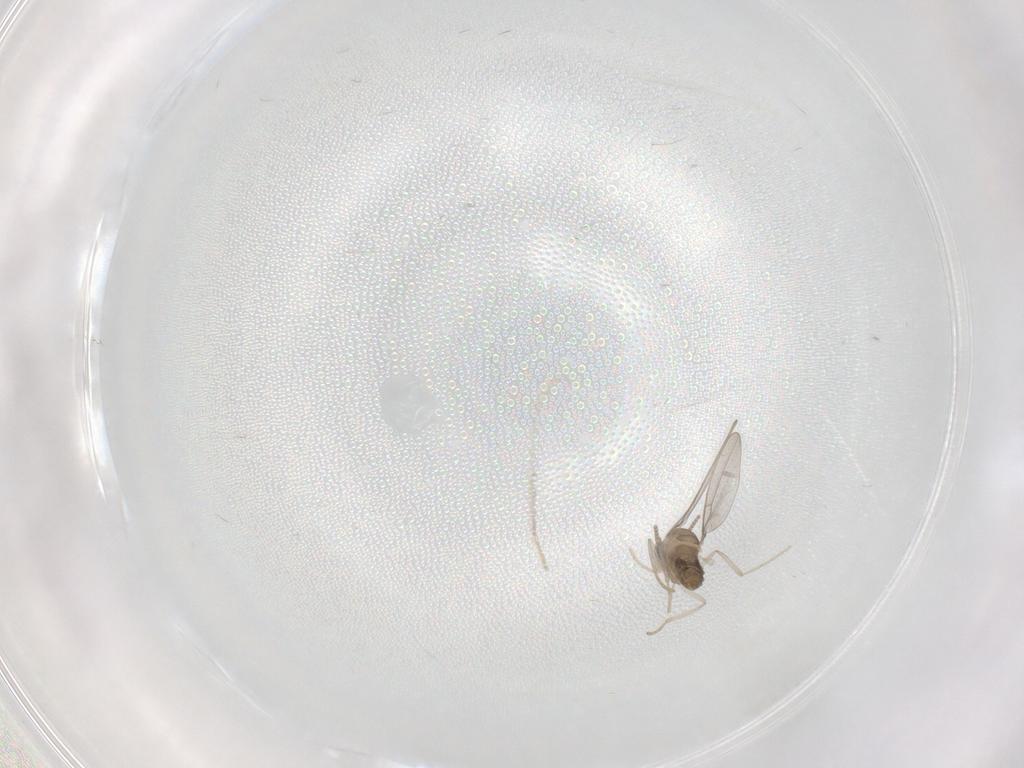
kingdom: Animalia
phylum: Arthropoda
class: Insecta
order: Diptera
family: Cecidomyiidae
